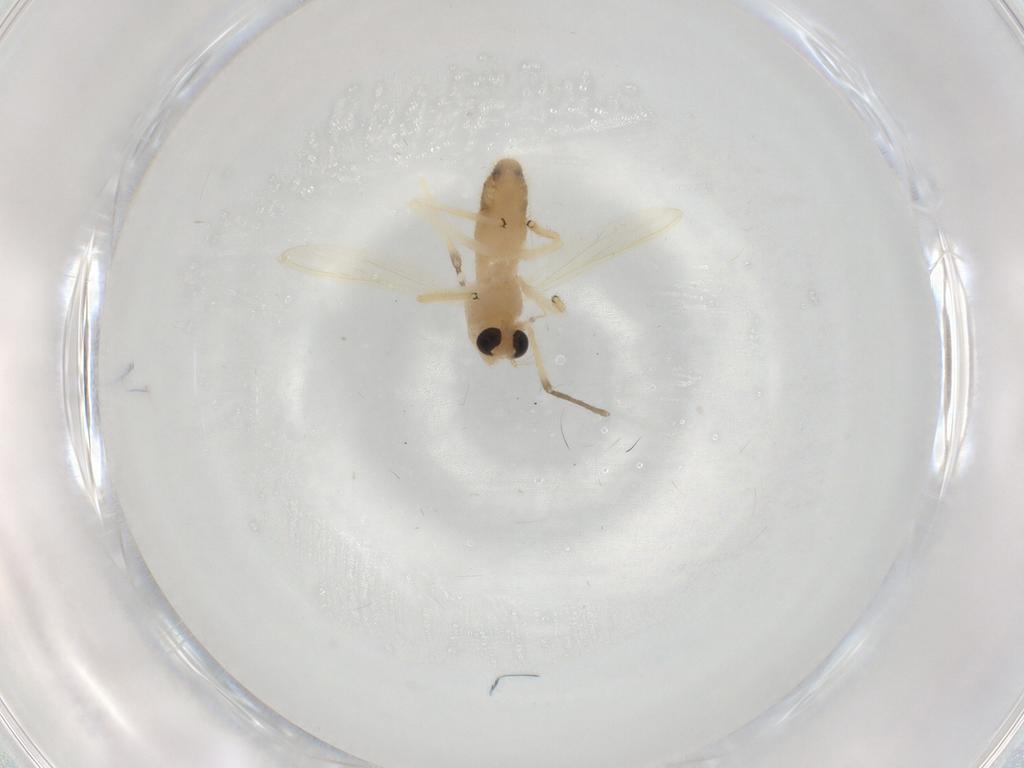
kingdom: Animalia
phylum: Arthropoda
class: Insecta
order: Diptera
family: Chironomidae
